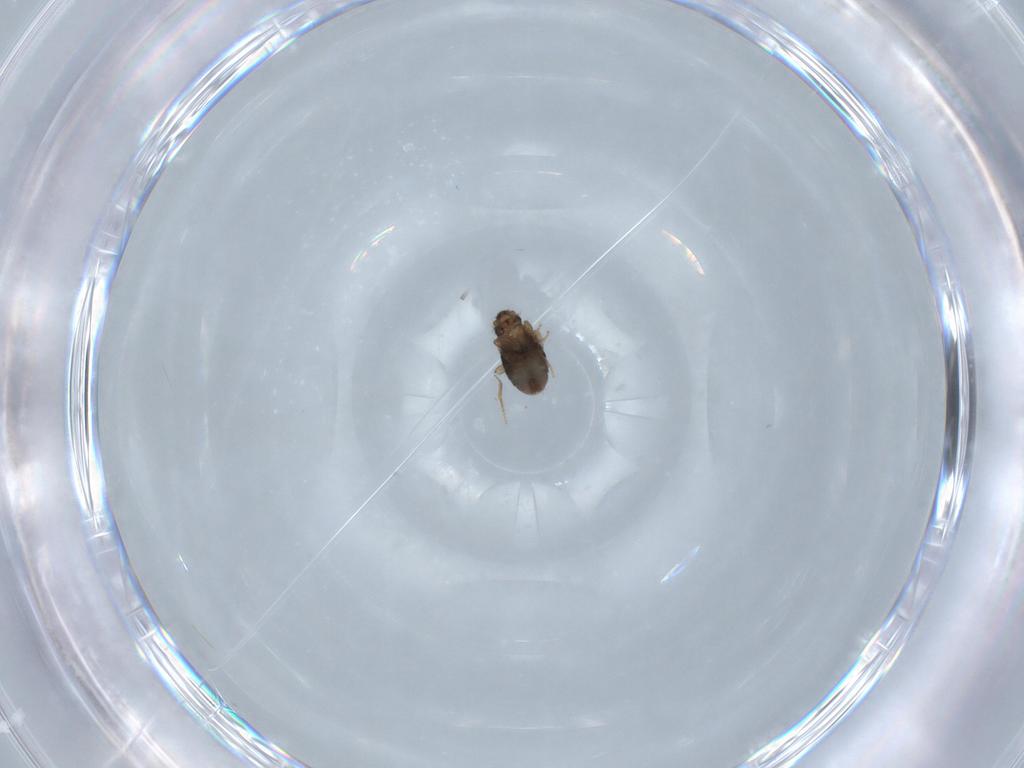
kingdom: Animalia
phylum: Arthropoda
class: Insecta
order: Diptera
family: Psychodidae
